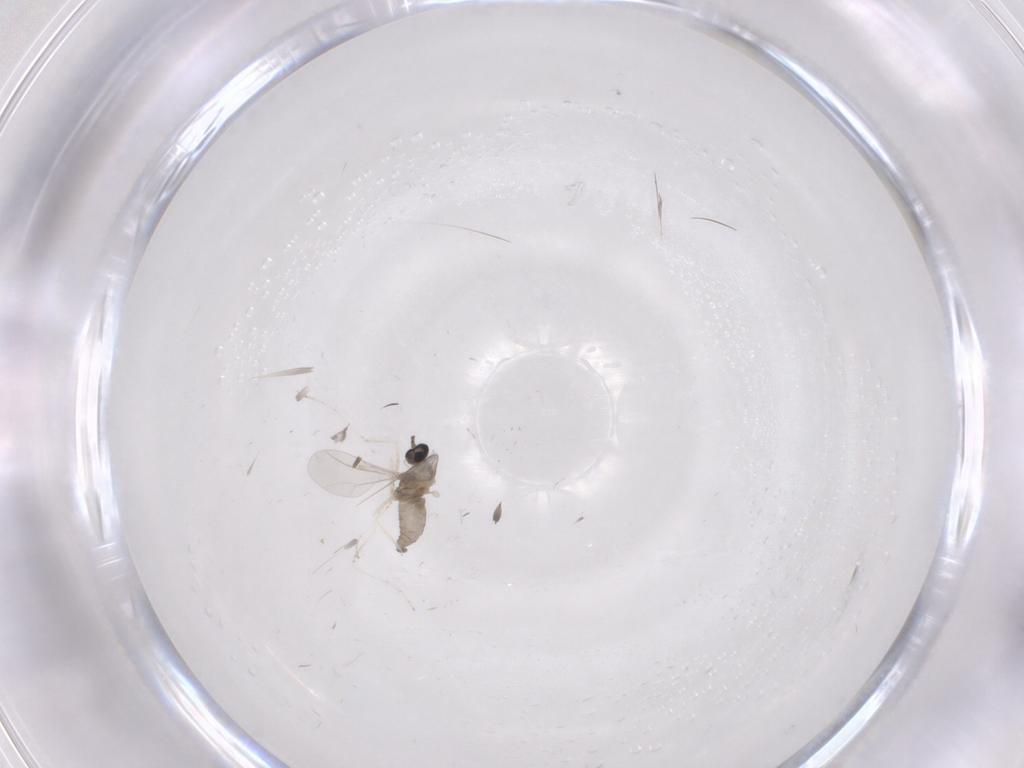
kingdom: Animalia
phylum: Arthropoda
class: Insecta
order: Diptera
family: Cecidomyiidae
